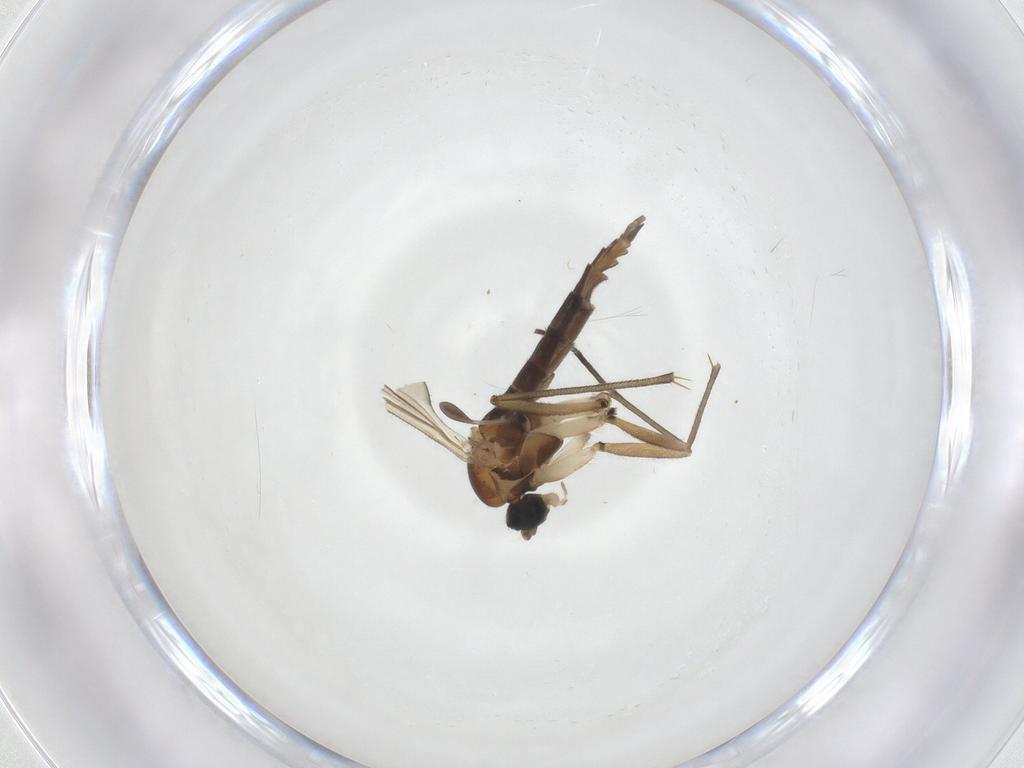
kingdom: Animalia
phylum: Arthropoda
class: Insecta
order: Diptera
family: Sciaridae
